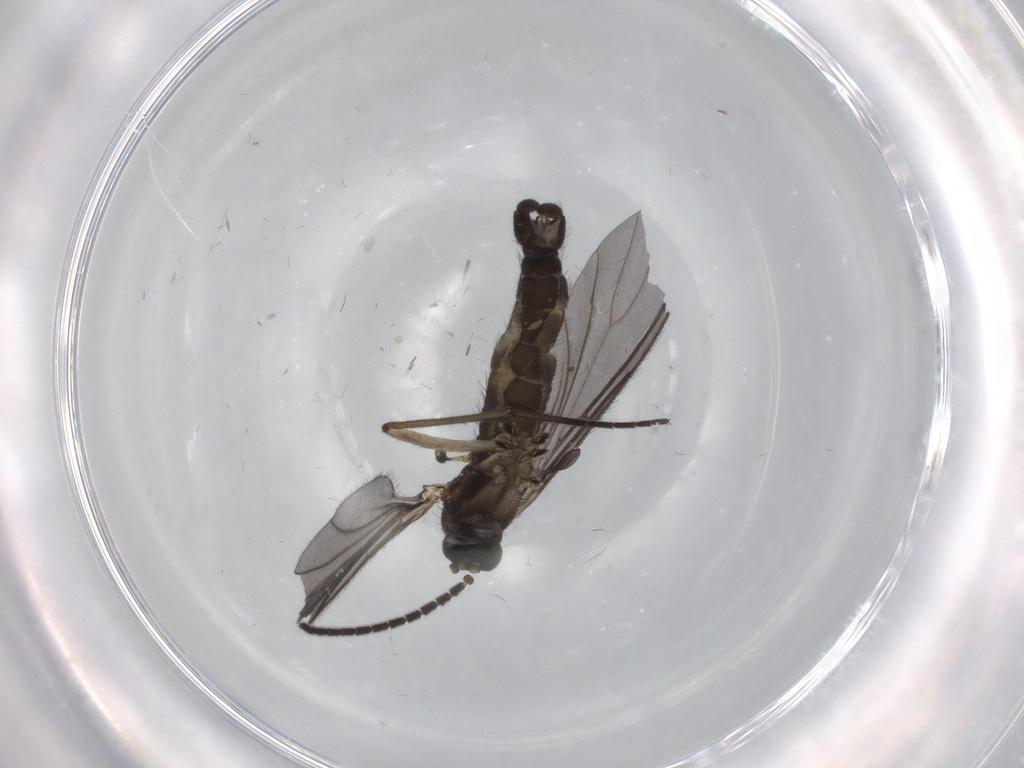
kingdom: Animalia
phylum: Arthropoda
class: Insecta
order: Diptera
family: Sciaridae
